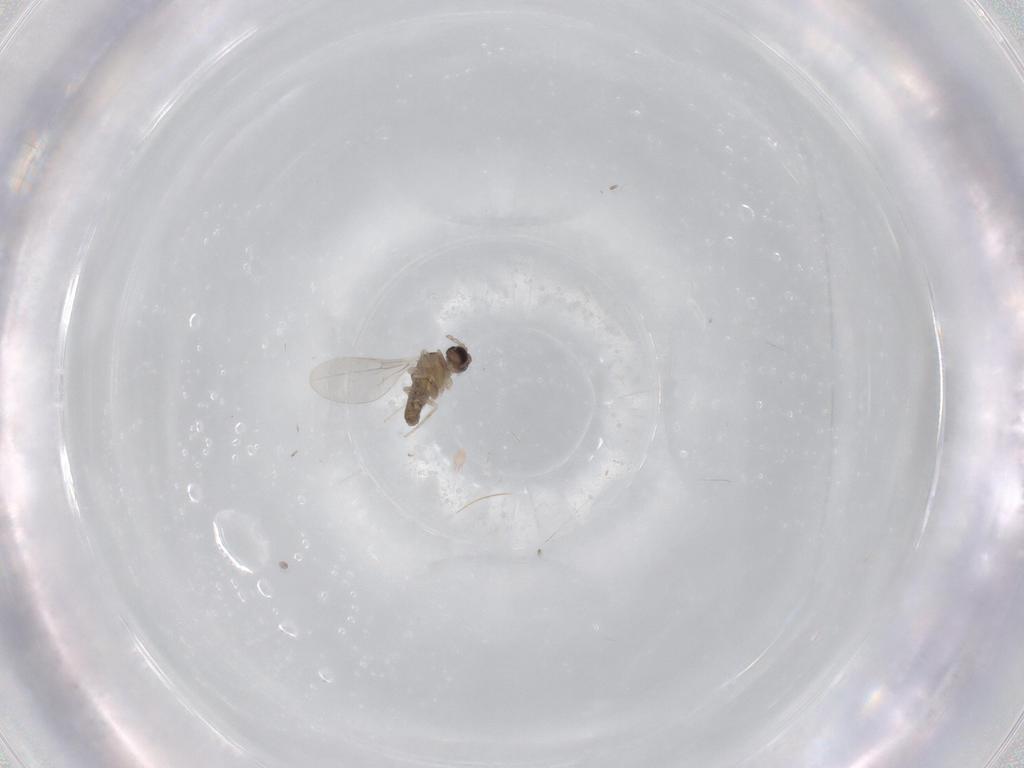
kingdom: Animalia
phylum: Arthropoda
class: Insecta
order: Diptera
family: Cecidomyiidae
